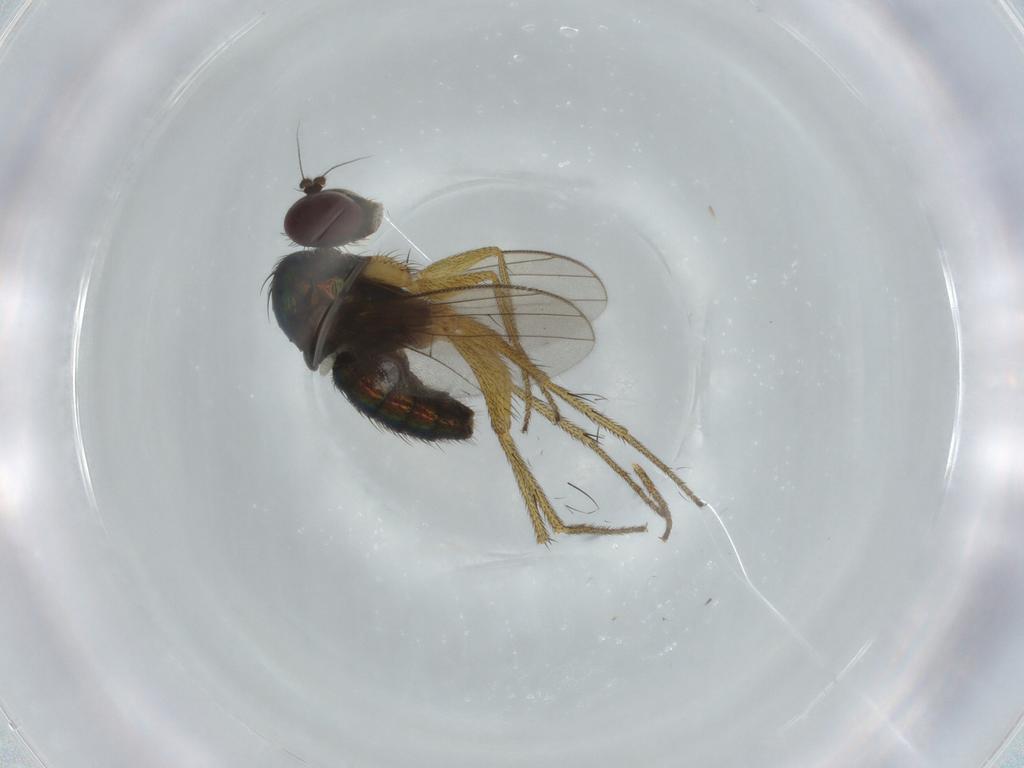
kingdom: Animalia
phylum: Arthropoda
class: Insecta
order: Diptera
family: Dolichopodidae
